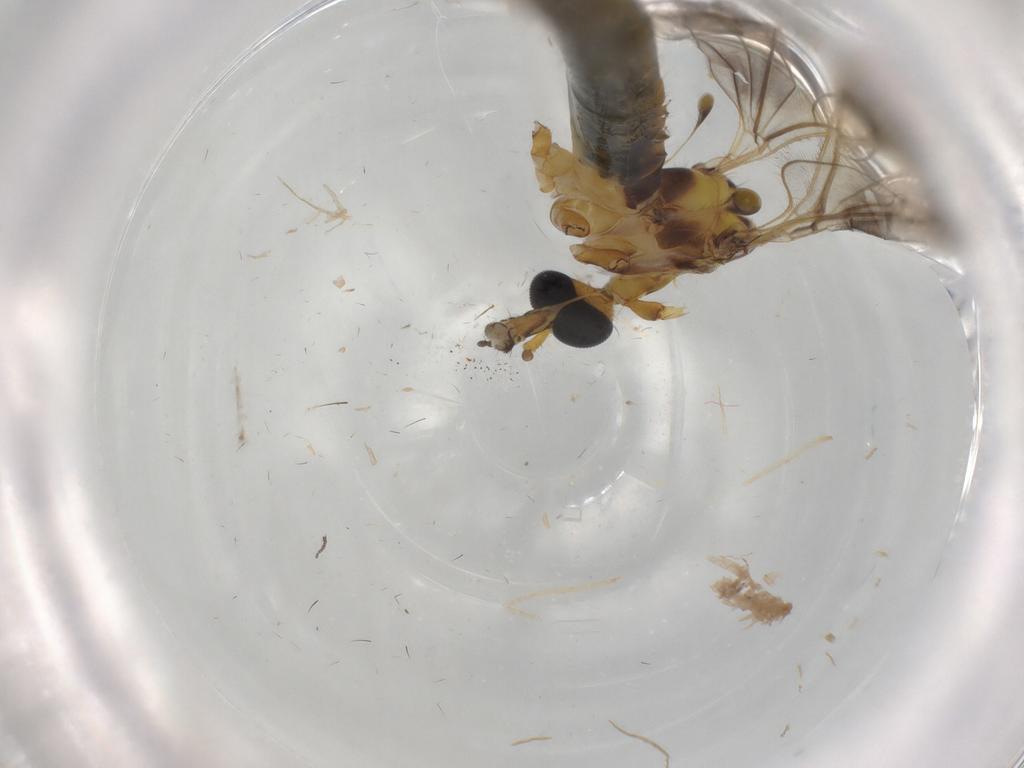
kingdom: Animalia
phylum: Arthropoda
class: Insecta
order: Diptera
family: Limoniidae
